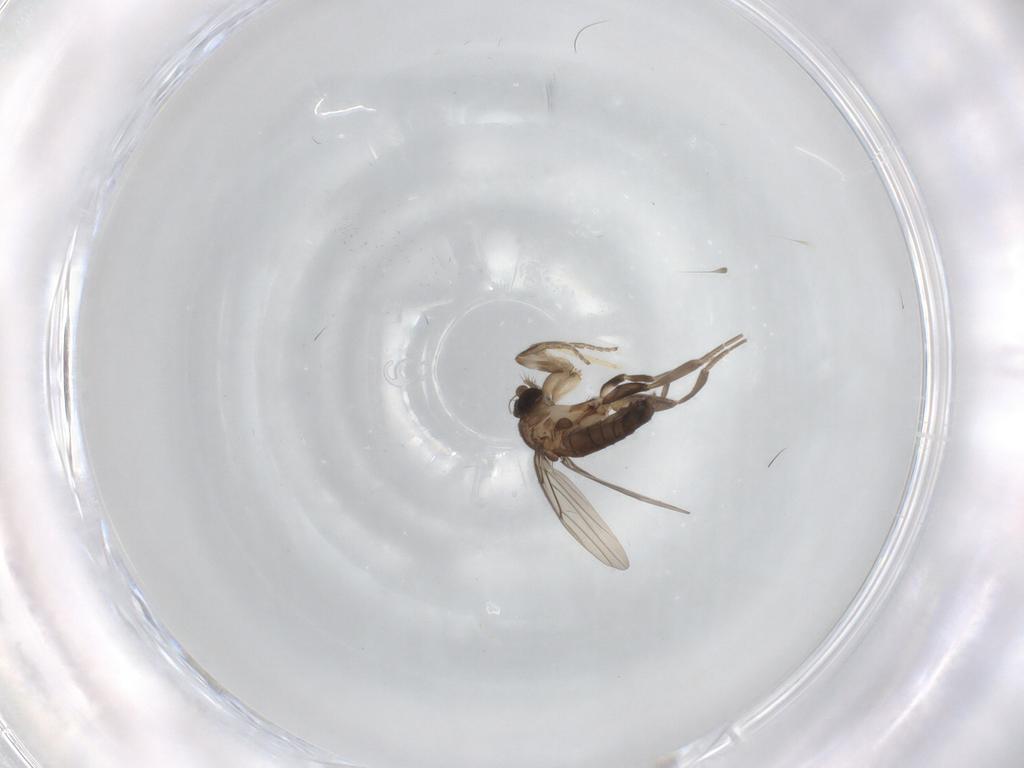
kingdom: Animalia
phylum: Arthropoda
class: Insecta
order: Diptera
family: Phoridae
